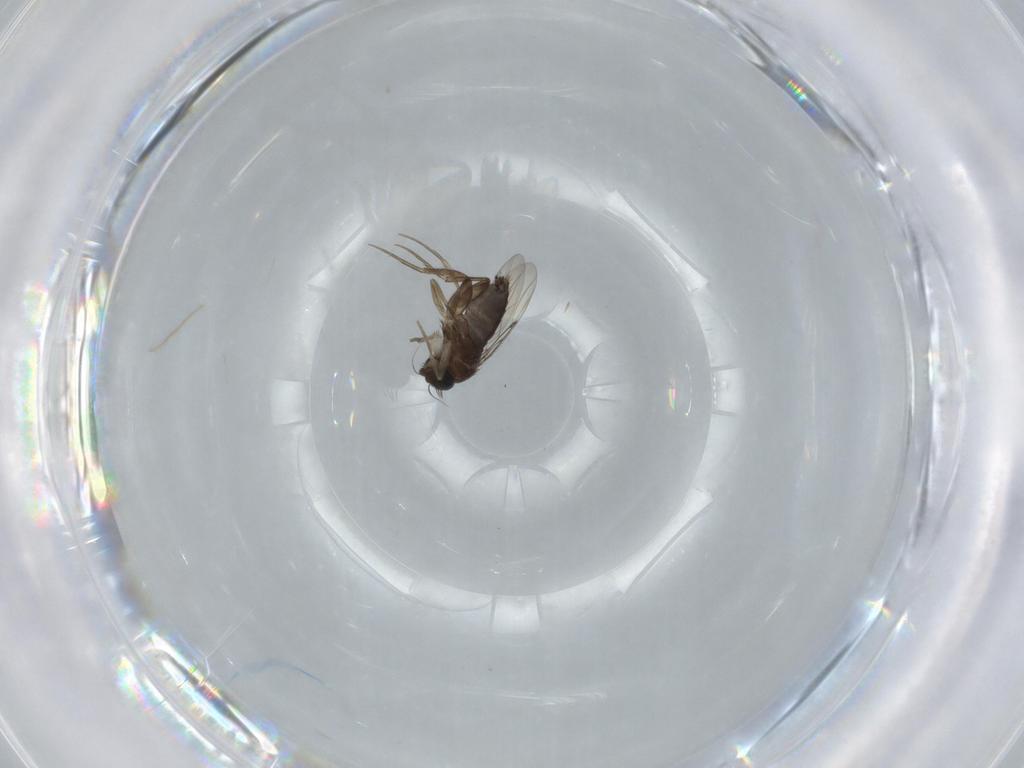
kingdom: Animalia
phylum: Arthropoda
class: Insecta
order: Diptera
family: Phoridae
